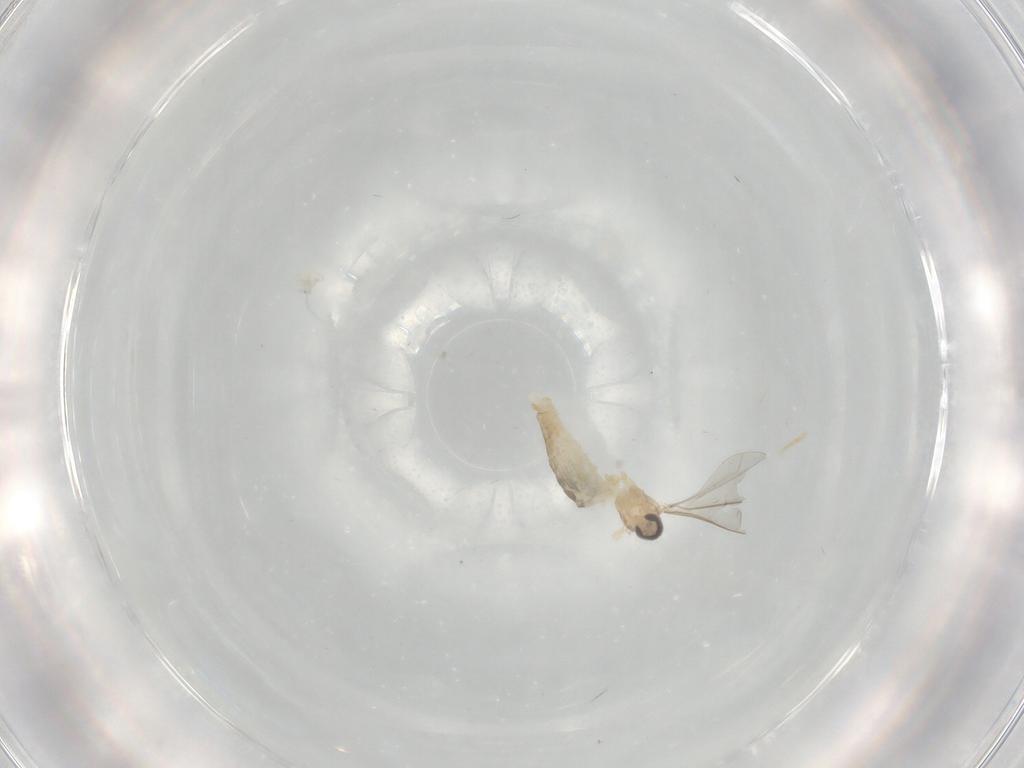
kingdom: Animalia
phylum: Arthropoda
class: Insecta
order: Diptera
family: Cecidomyiidae
